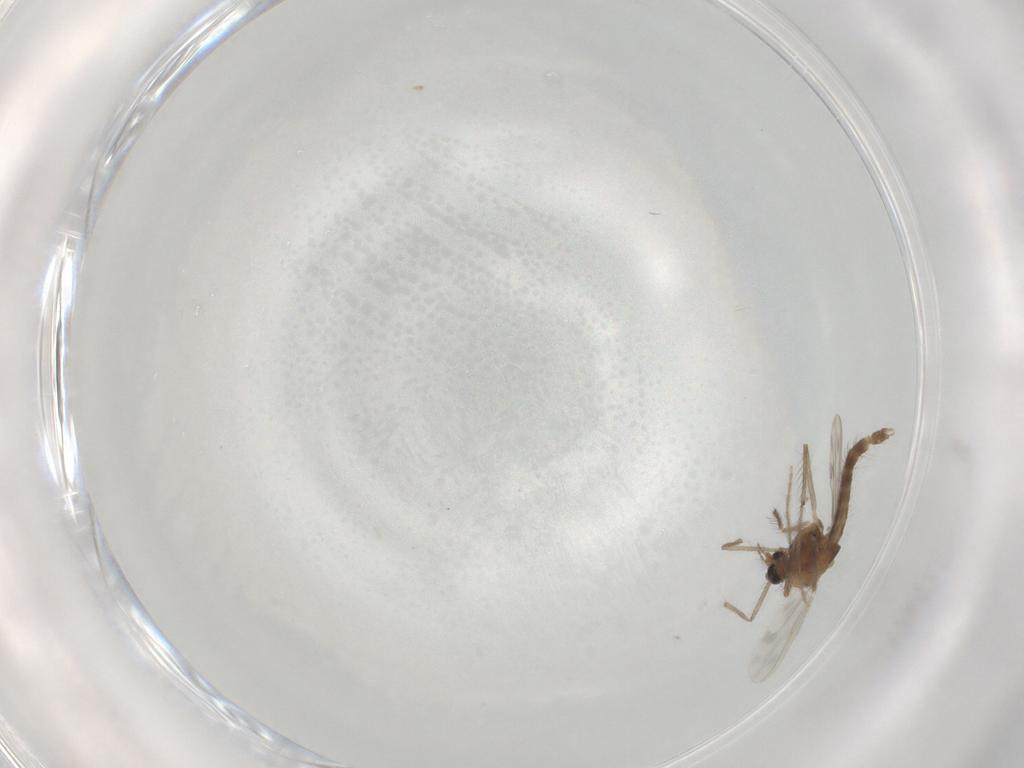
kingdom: Animalia
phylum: Arthropoda
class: Insecta
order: Diptera
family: Chironomidae
